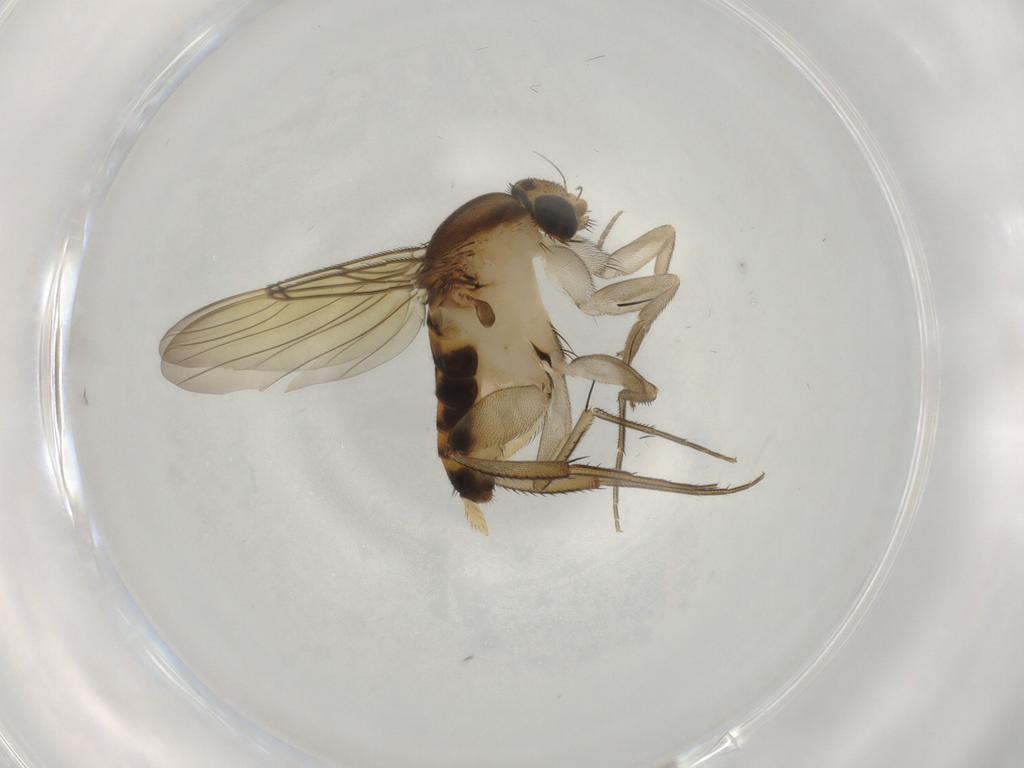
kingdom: Animalia
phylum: Arthropoda
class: Insecta
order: Diptera
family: Phoridae
